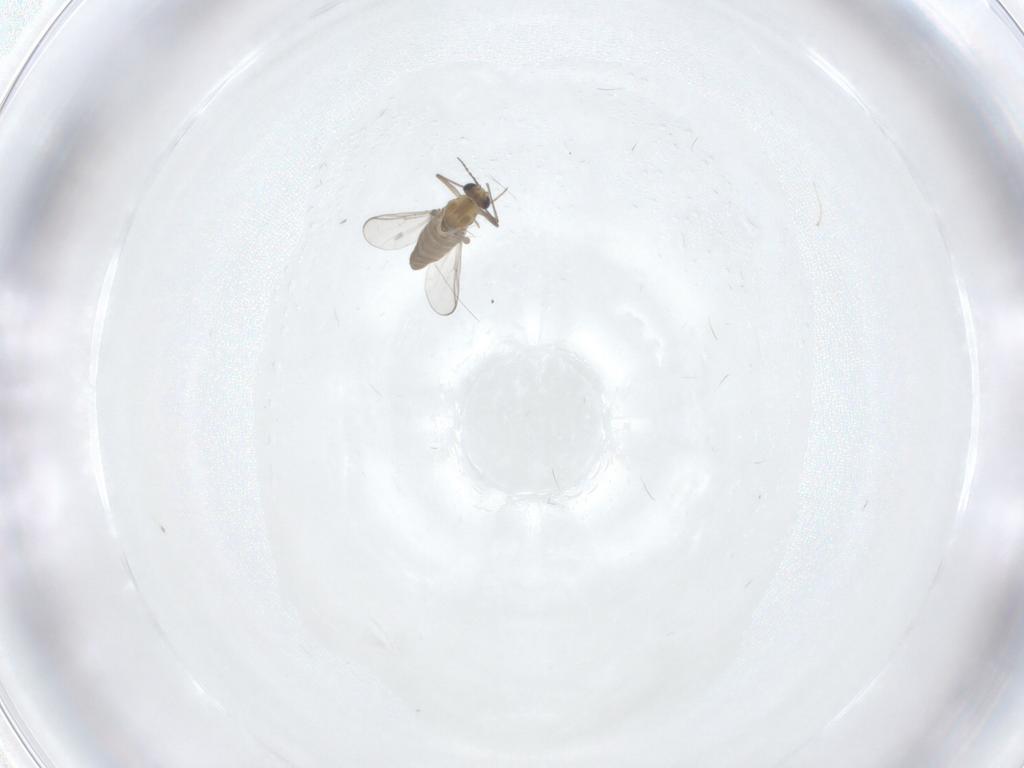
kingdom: Animalia
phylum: Arthropoda
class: Insecta
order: Diptera
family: Chironomidae
